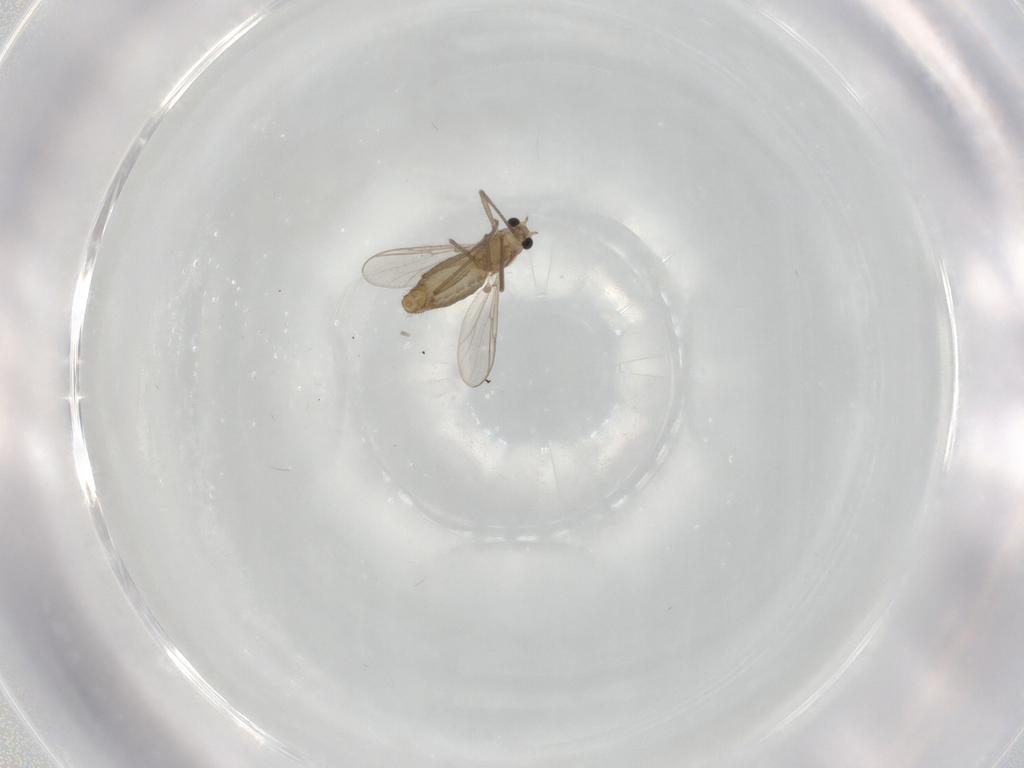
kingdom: Animalia
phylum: Arthropoda
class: Insecta
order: Diptera
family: Chironomidae
